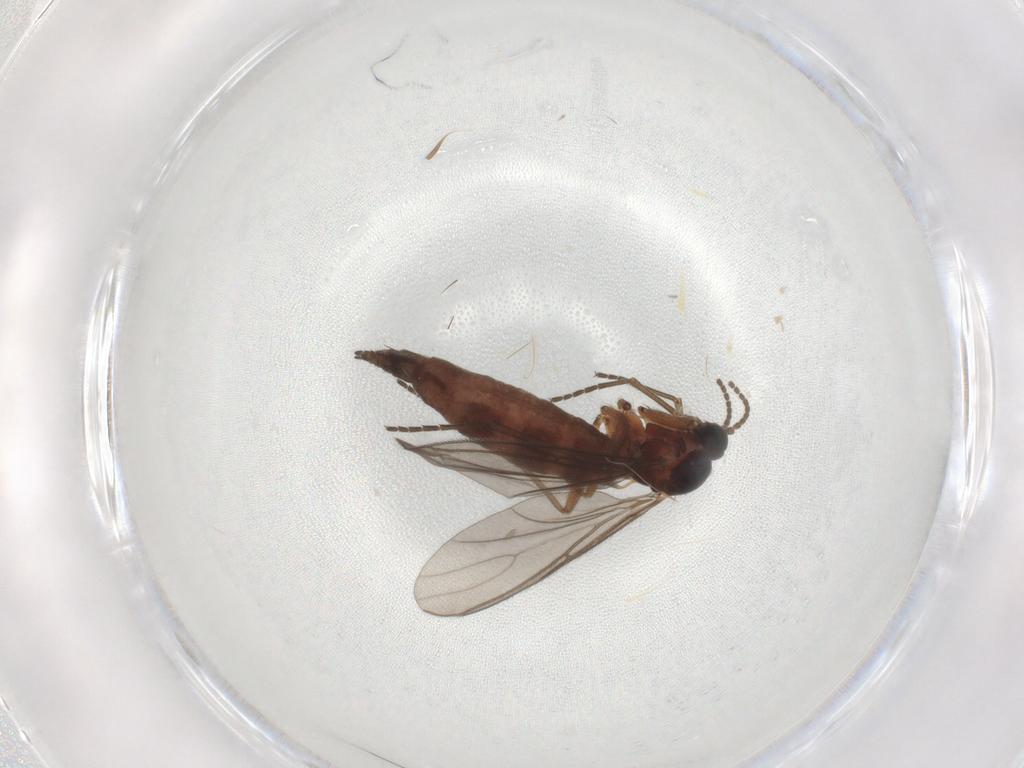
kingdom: Animalia
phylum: Arthropoda
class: Insecta
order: Diptera
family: Sciaridae
